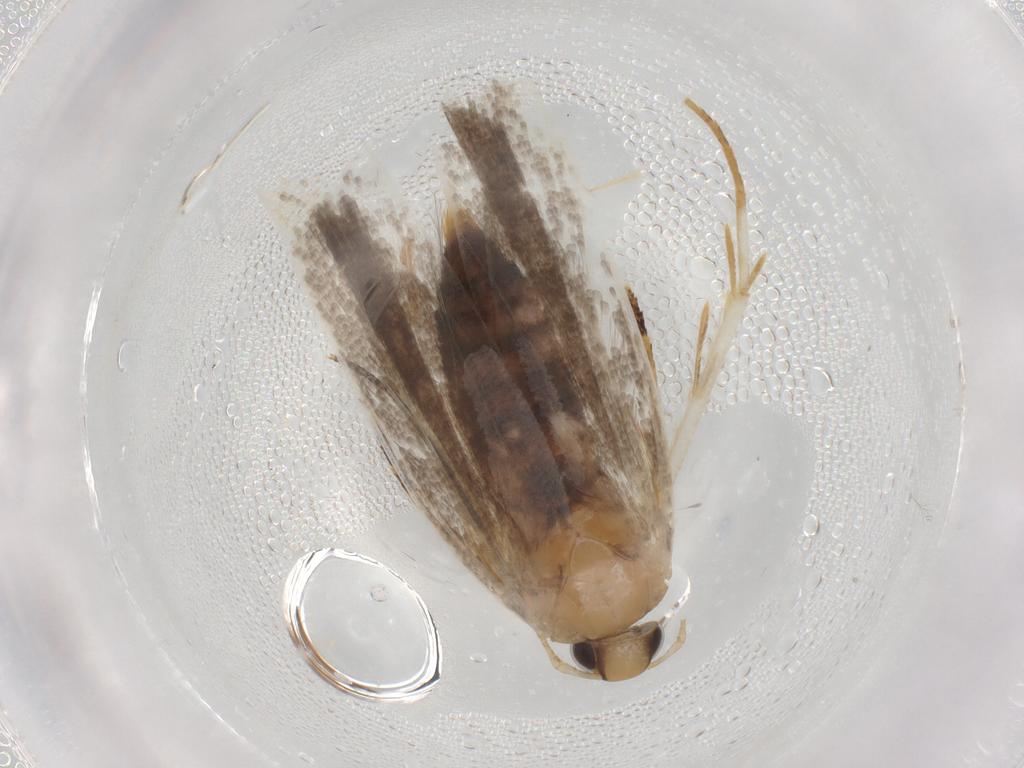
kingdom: Animalia
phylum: Arthropoda
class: Insecta
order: Lepidoptera
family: Gelechiidae
